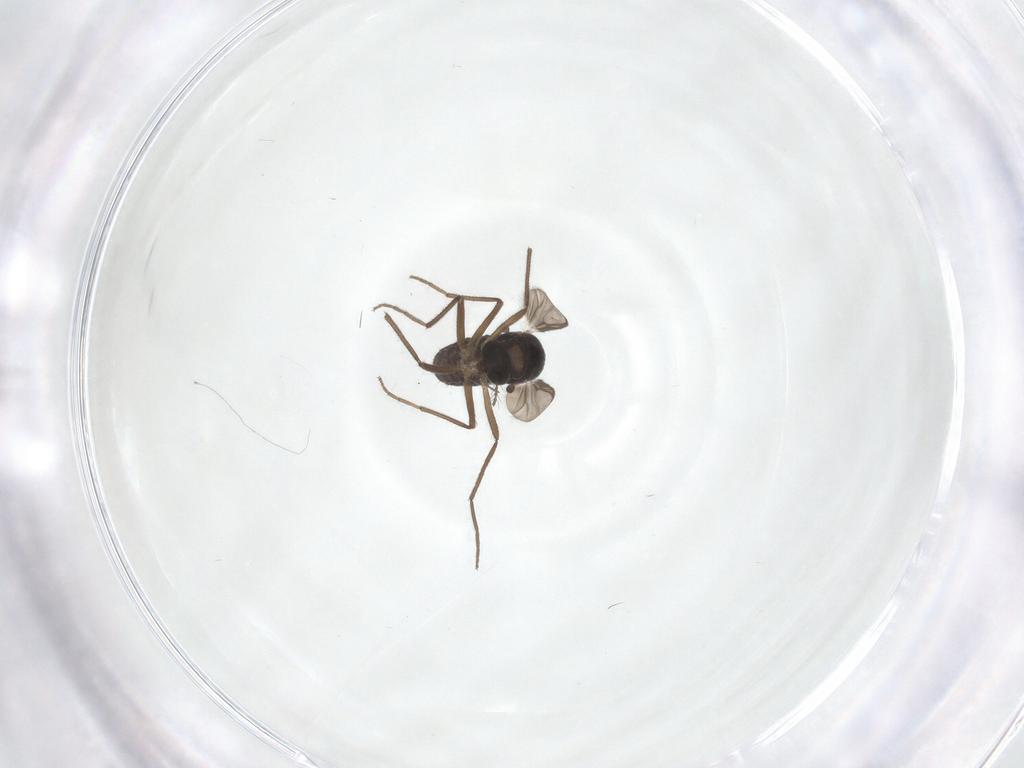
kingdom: Animalia
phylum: Arthropoda
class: Insecta
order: Diptera
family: Chironomidae
